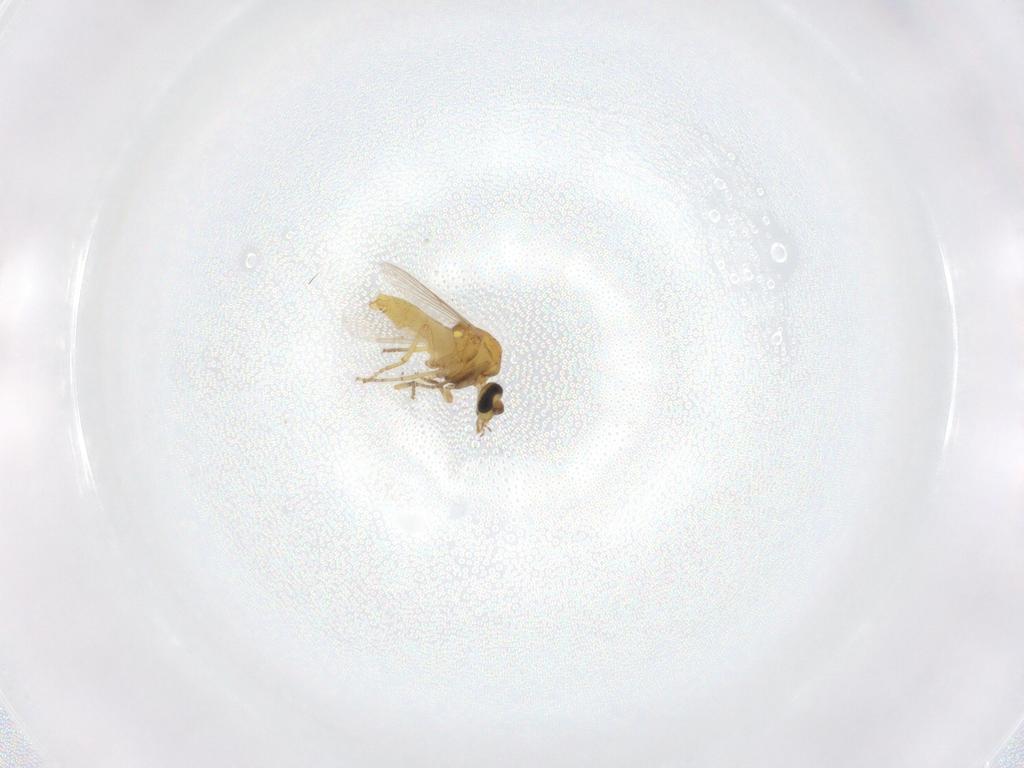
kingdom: Animalia
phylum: Arthropoda
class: Insecta
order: Diptera
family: Ceratopogonidae
